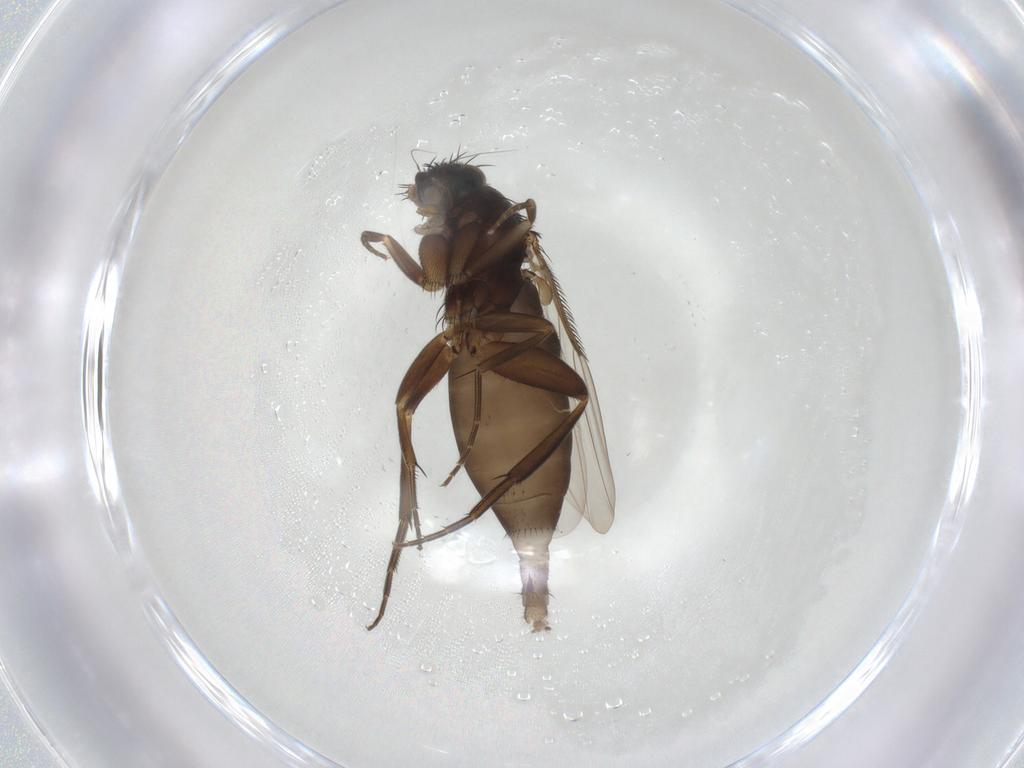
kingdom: Animalia
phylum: Arthropoda
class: Insecta
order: Diptera
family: Phoridae
